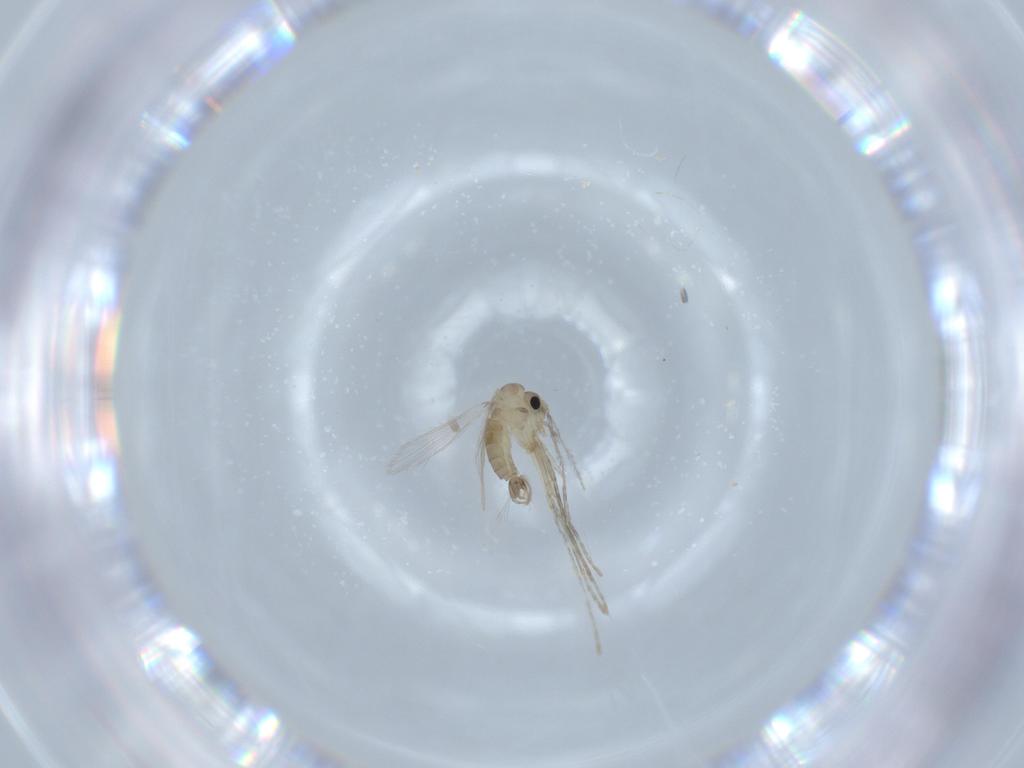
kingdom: Animalia
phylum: Arthropoda
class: Insecta
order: Diptera
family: Psychodidae
